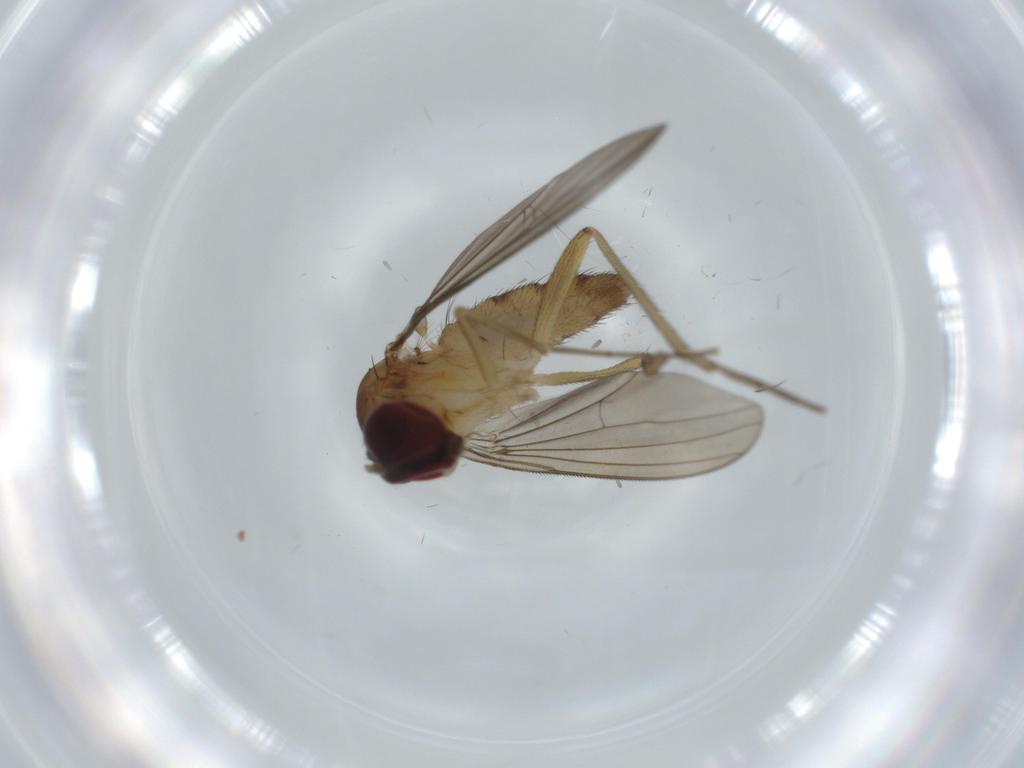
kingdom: Animalia
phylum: Arthropoda
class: Insecta
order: Diptera
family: Dolichopodidae
